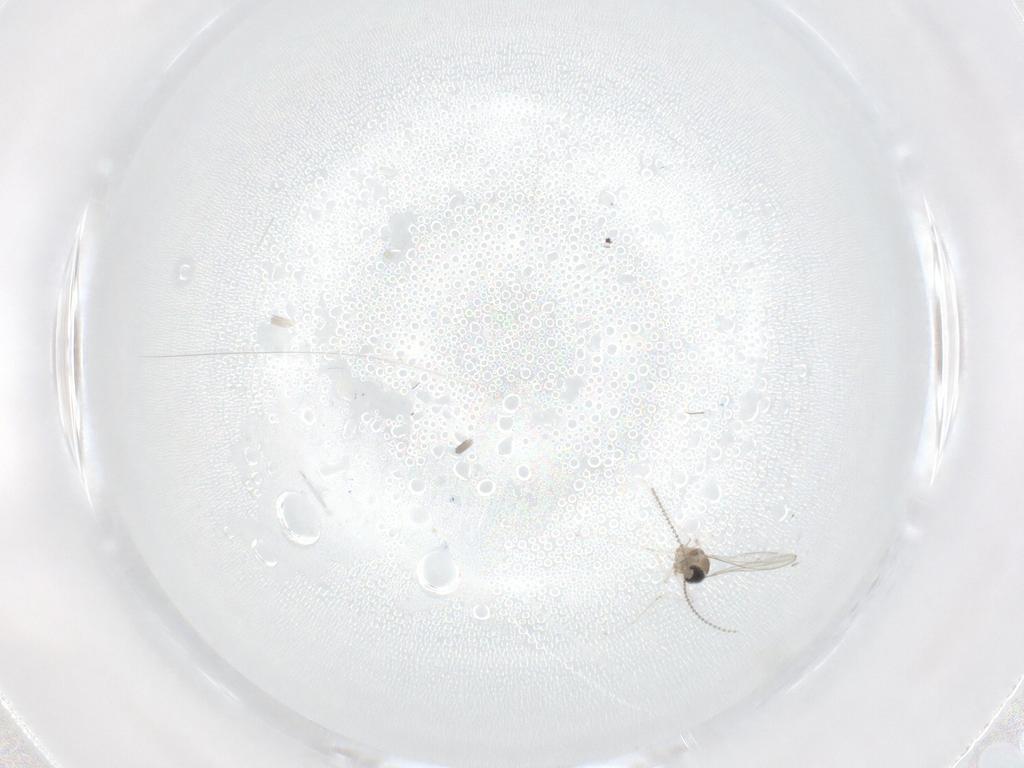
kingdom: Animalia
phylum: Arthropoda
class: Insecta
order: Diptera
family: Cecidomyiidae
